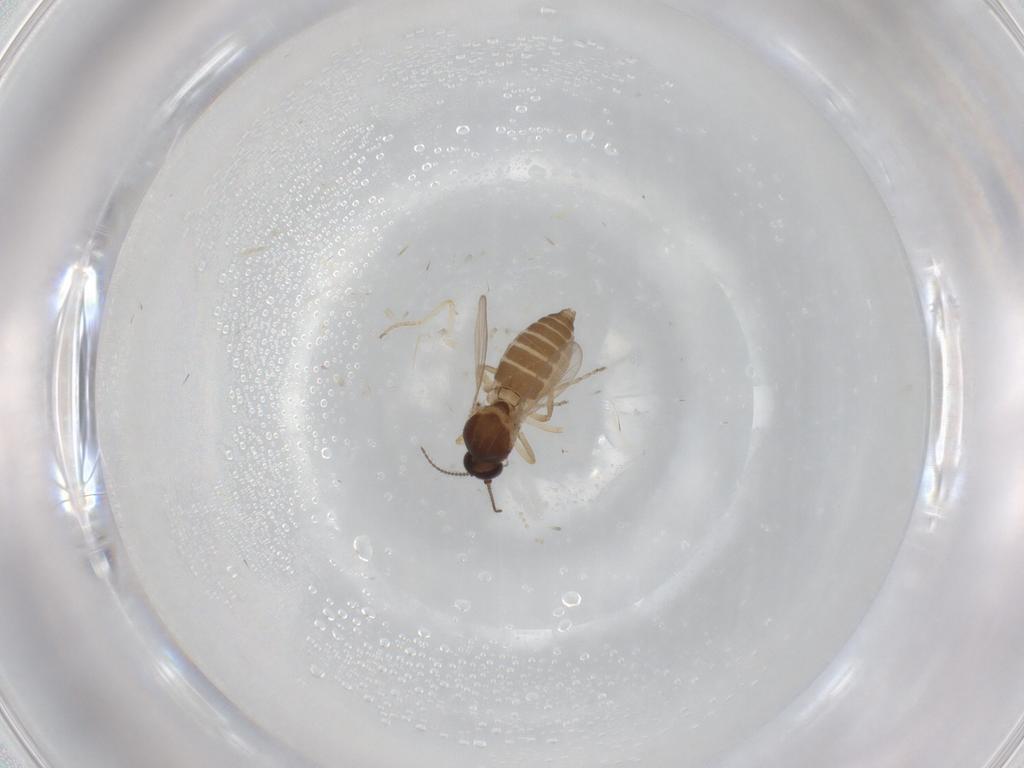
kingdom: Animalia
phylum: Arthropoda
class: Insecta
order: Diptera
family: Ceratopogonidae
